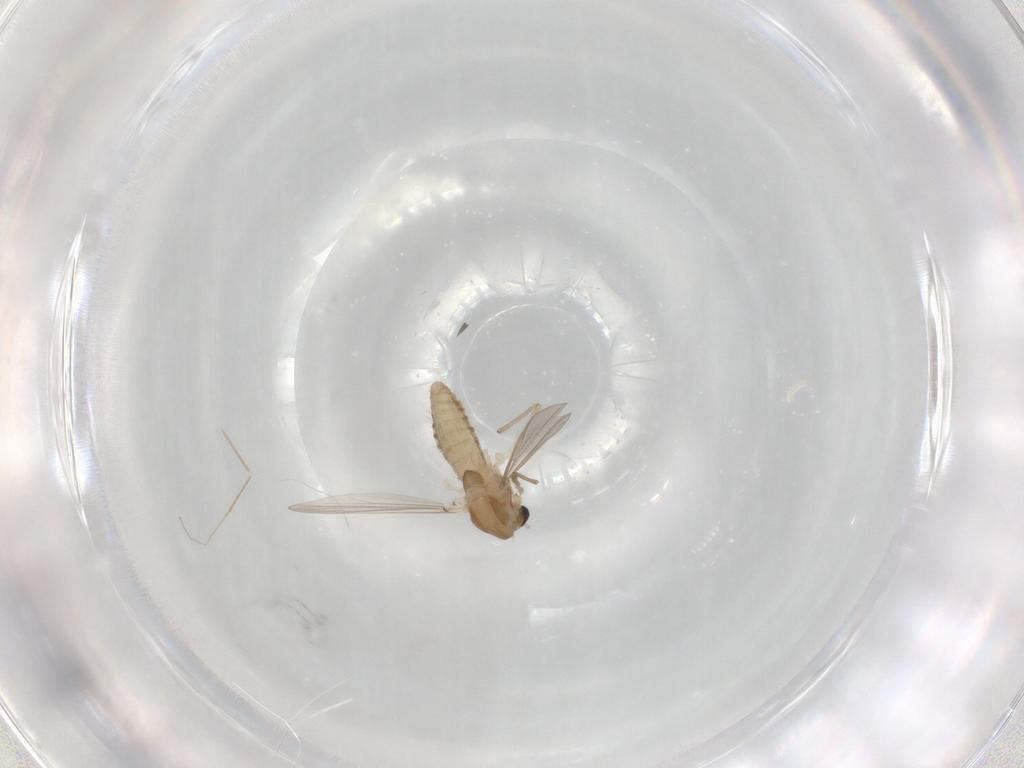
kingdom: Animalia
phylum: Arthropoda
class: Insecta
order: Diptera
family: Chironomidae
